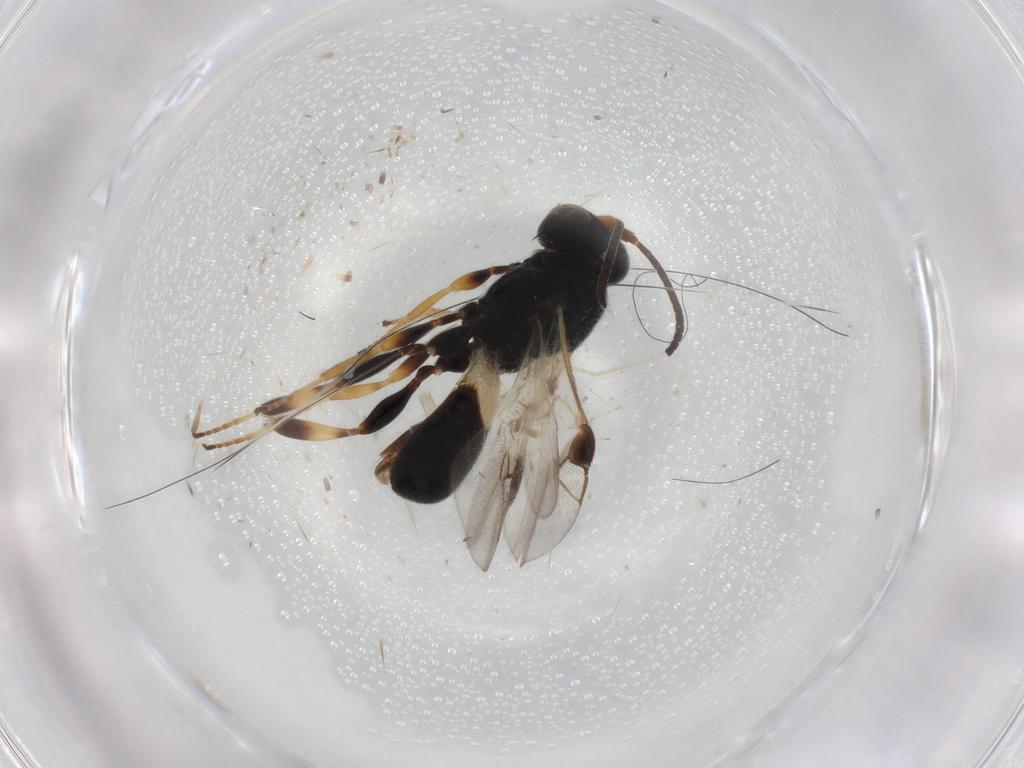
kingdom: Animalia
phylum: Arthropoda
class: Insecta
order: Hymenoptera
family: Braconidae
